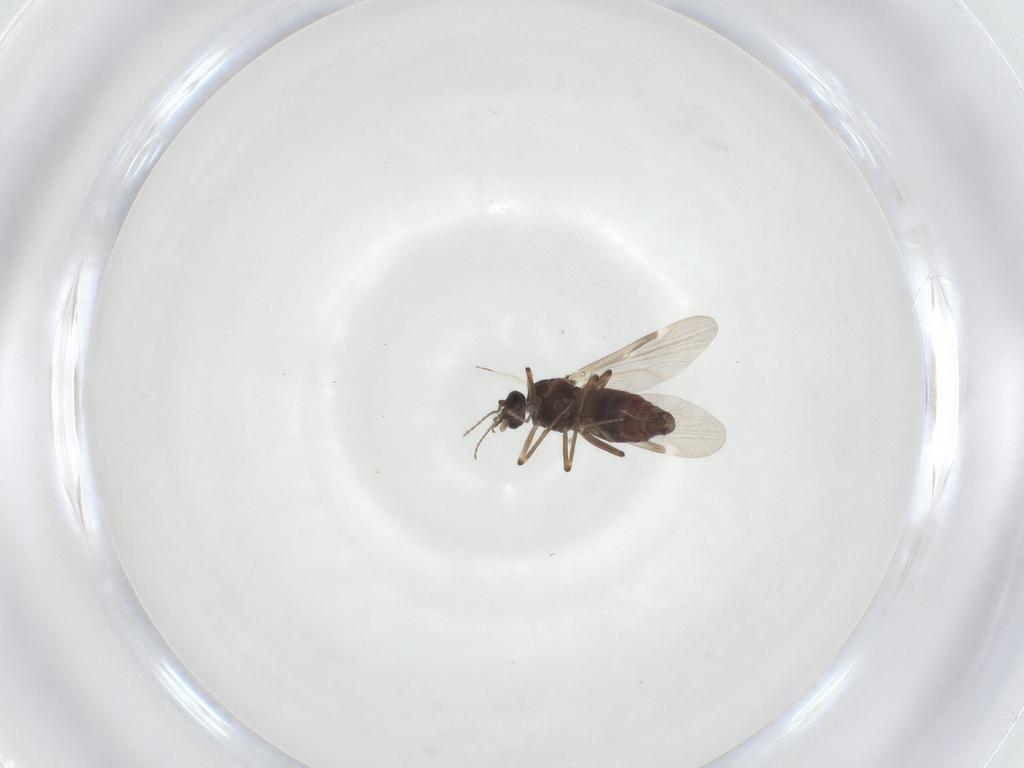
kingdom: Animalia
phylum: Arthropoda
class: Insecta
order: Diptera
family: Ceratopogonidae
